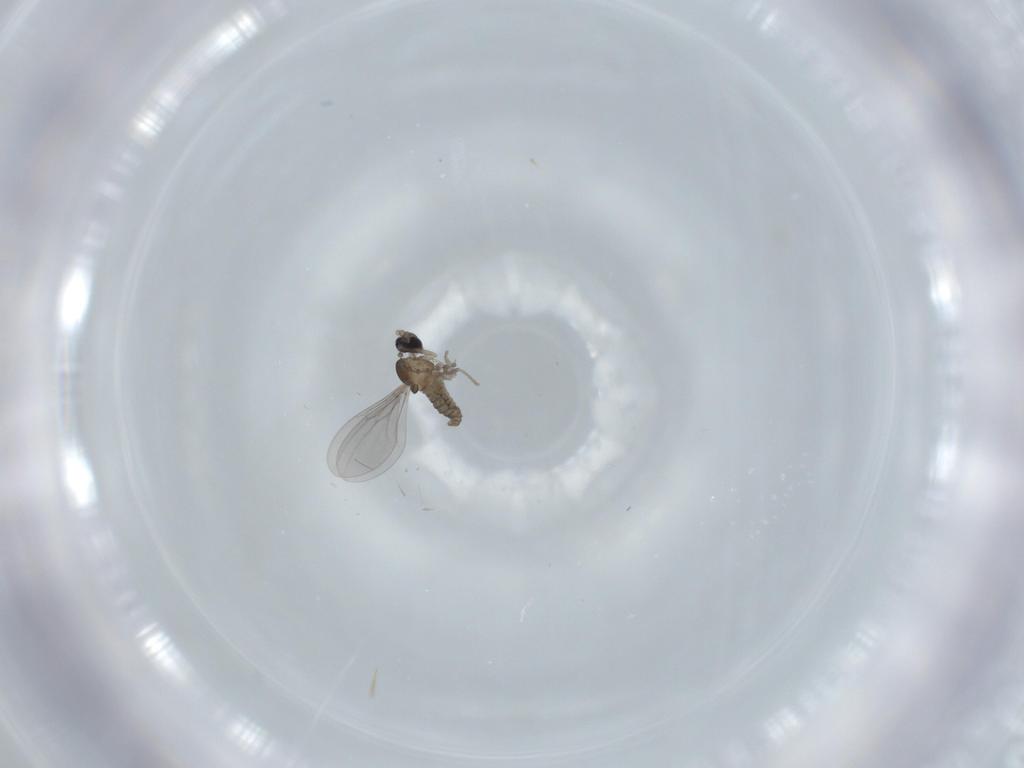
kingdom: Animalia
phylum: Arthropoda
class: Insecta
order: Diptera
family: Cecidomyiidae
